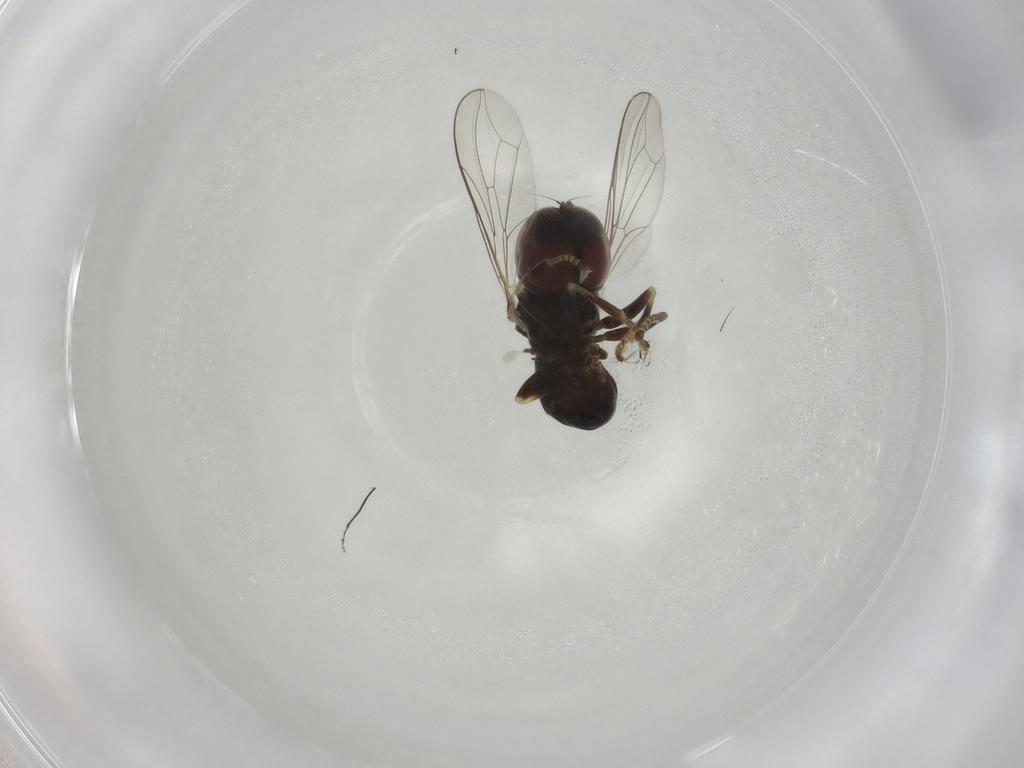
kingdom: Animalia
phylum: Arthropoda
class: Insecta
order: Diptera
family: Pipunculidae
